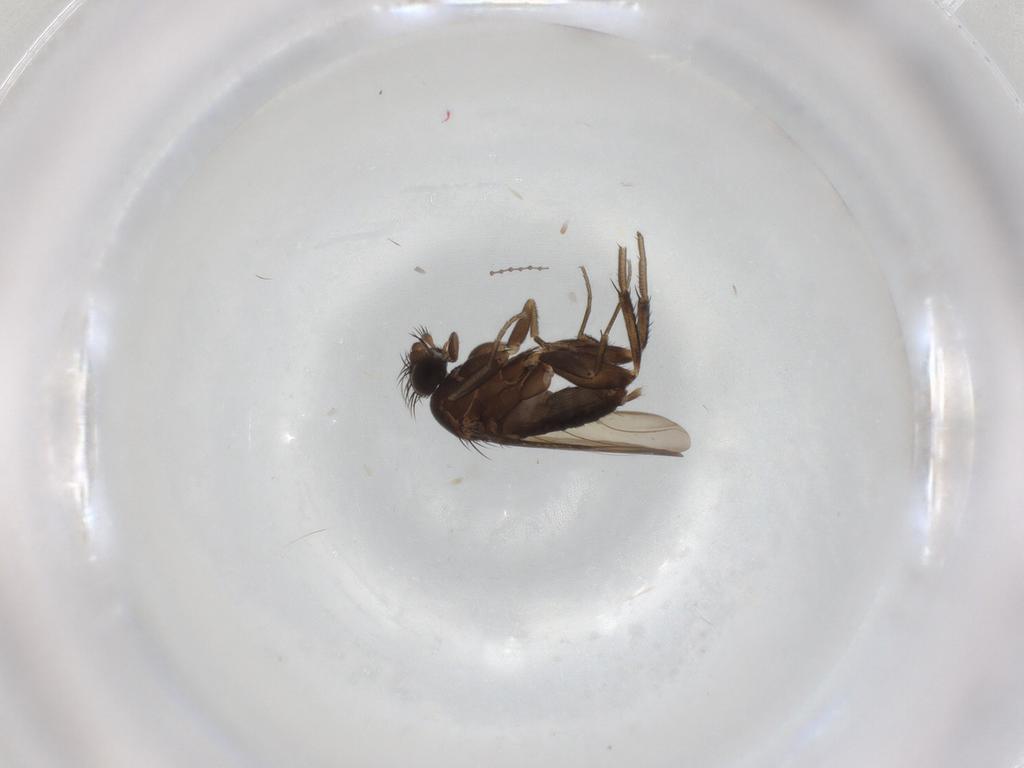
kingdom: Animalia
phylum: Arthropoda
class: Insecta
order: Diptera
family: Phoridae
